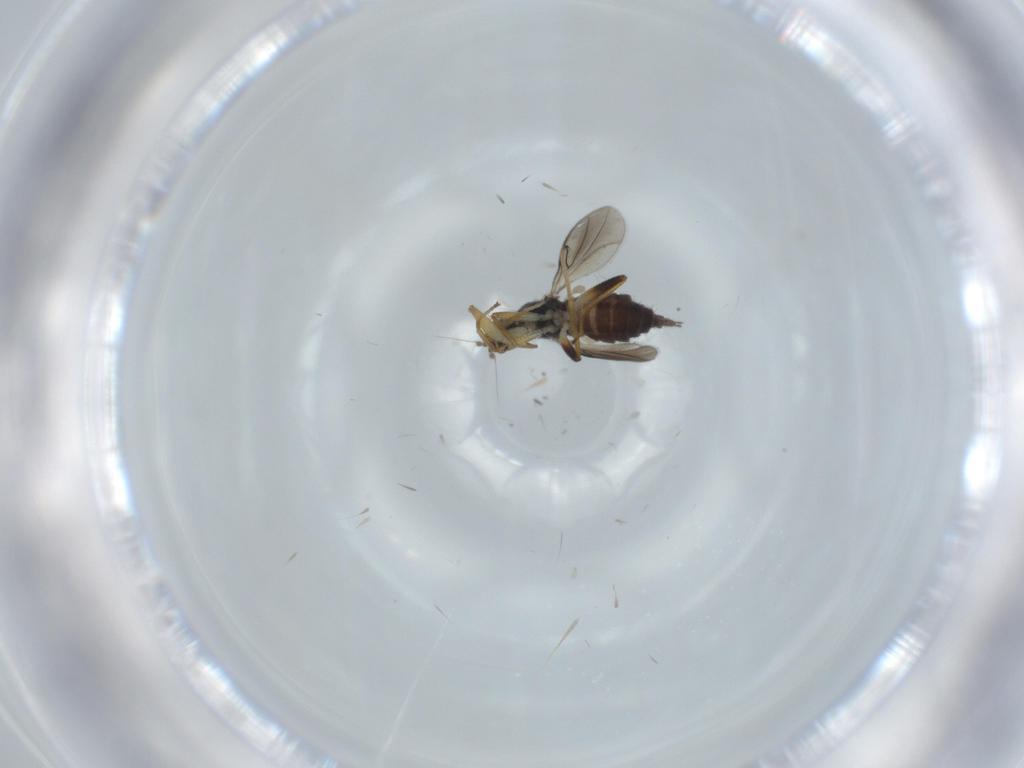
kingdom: Animalia
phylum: Arthropoda
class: Insecta
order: Diptera
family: Hybotidae
